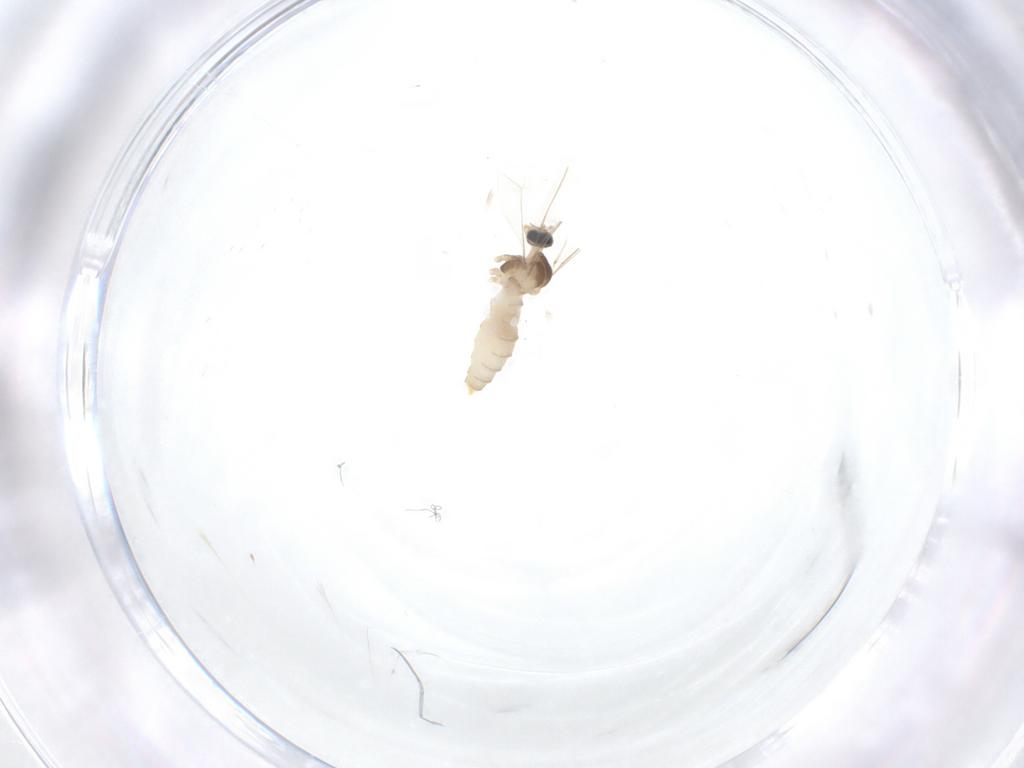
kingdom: Animalia
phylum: Arthropoda
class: Insecta
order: Diptera
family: Cecidomyiidae
